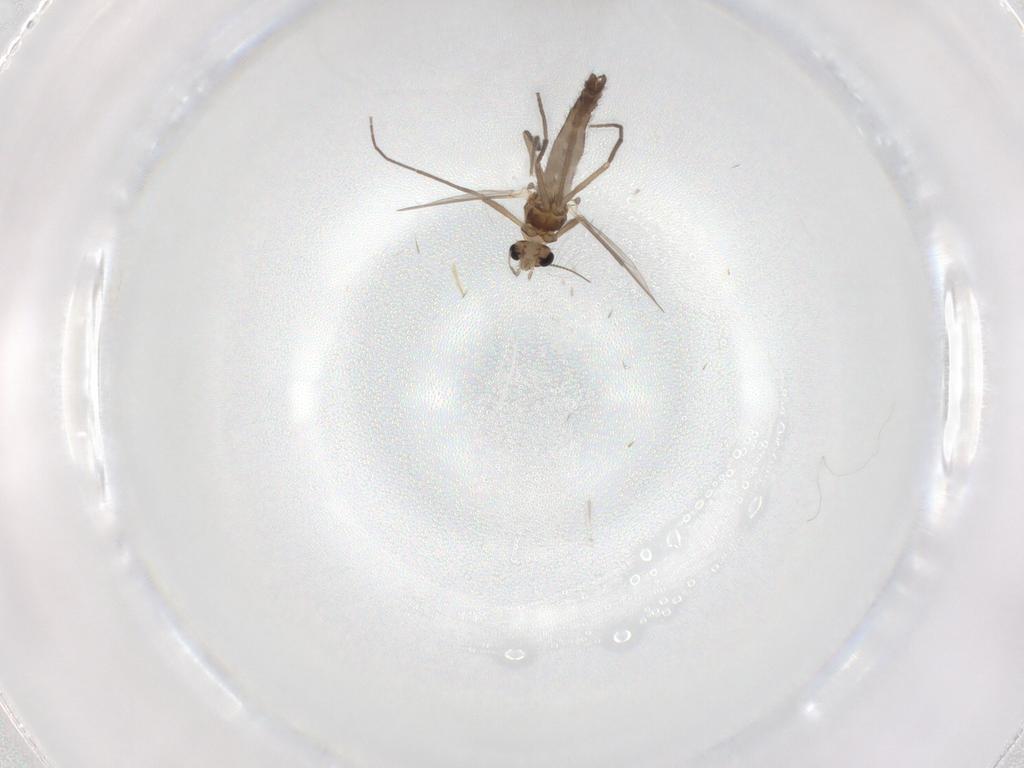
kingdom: Animalia
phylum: Arthropoda
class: Insecta
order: Diptera
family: Chironomidae
